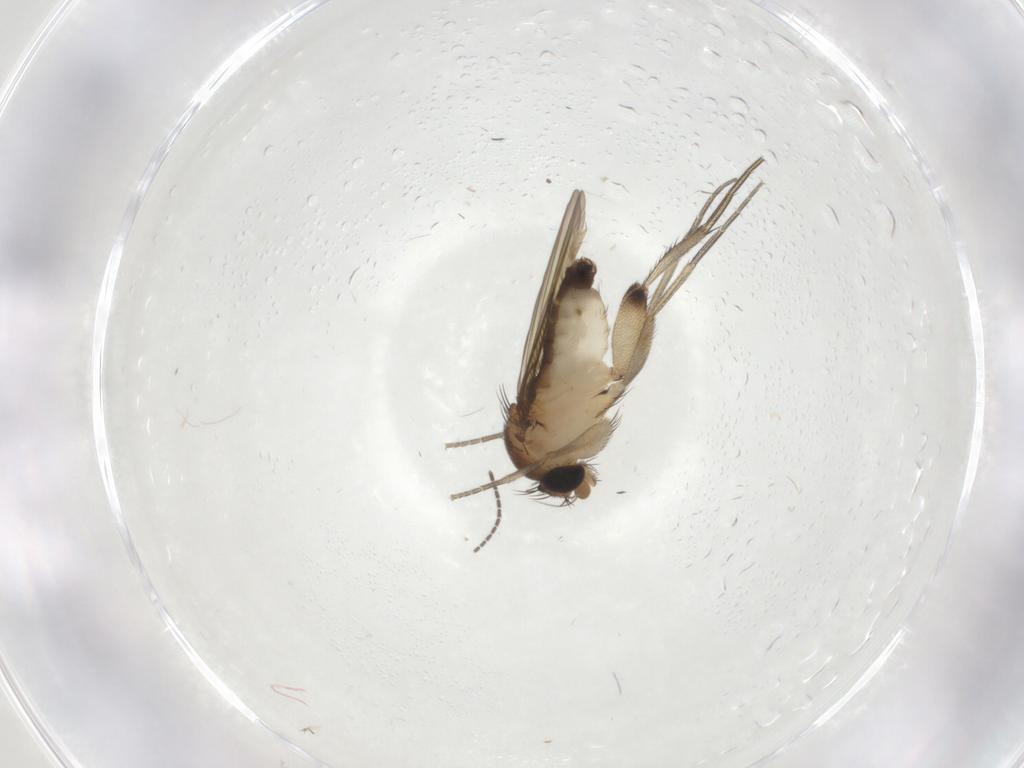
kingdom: Animalia
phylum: Arthropoda
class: Insecta
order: Diptera
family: Phoridae
